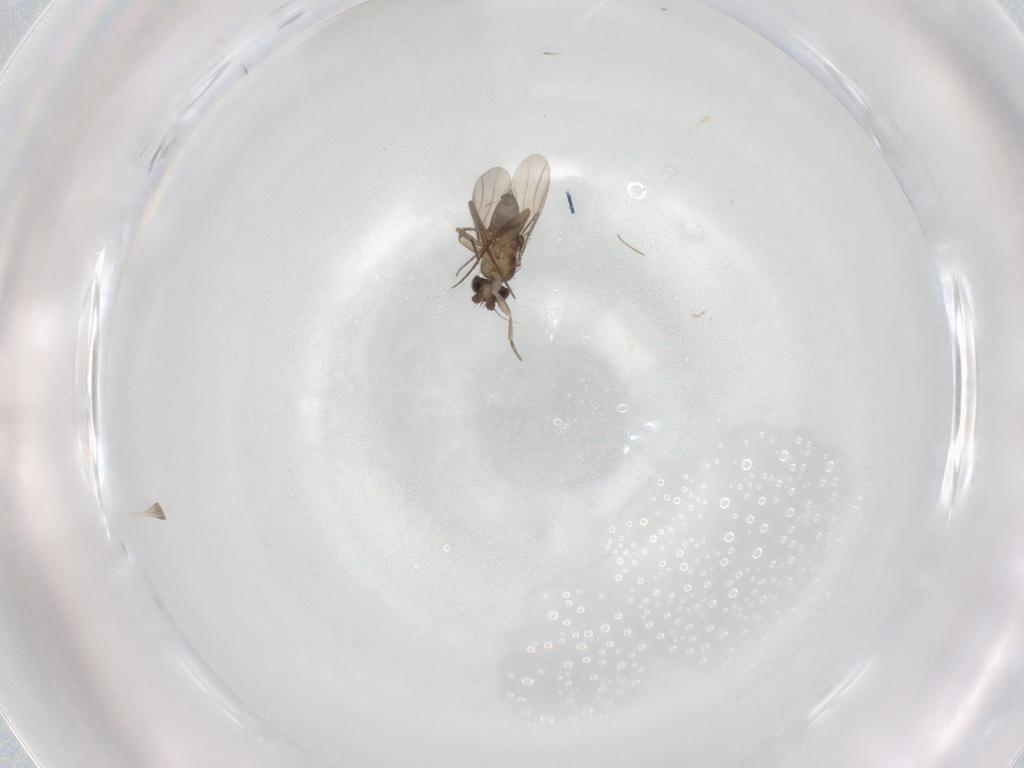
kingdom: Animalia
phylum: Arthropoda
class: Insecta
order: Diptera
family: Phoridae
